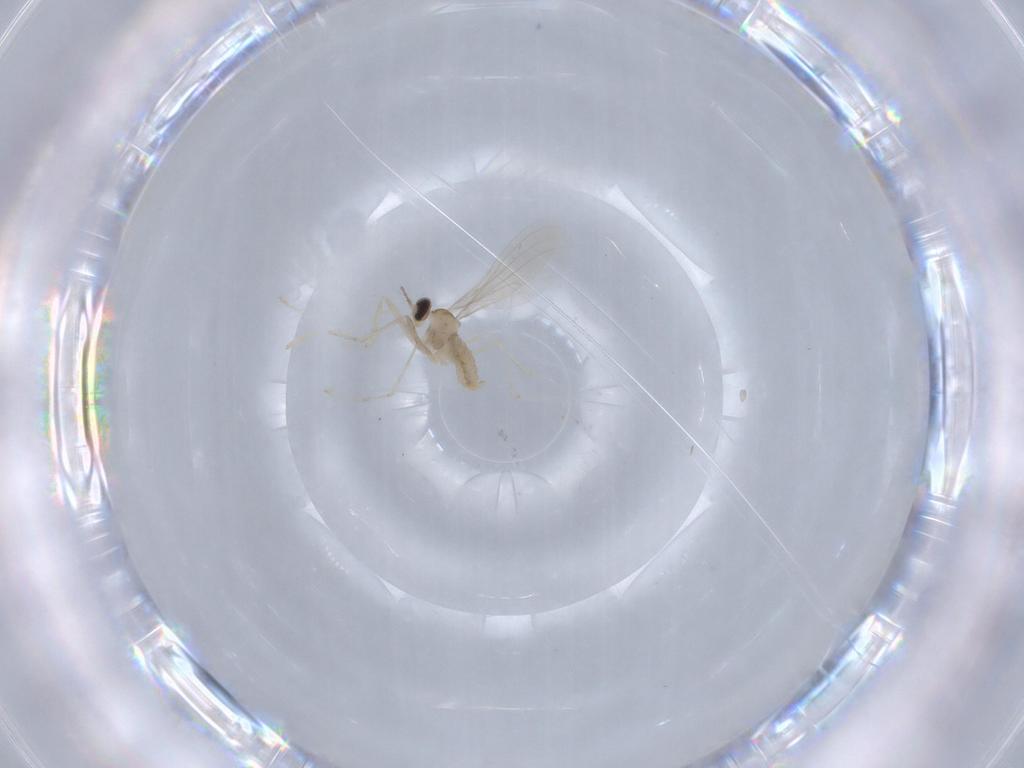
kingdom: Animalia
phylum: Arthropoda
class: Insecta
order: Diptera
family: Cecidomyiidae
